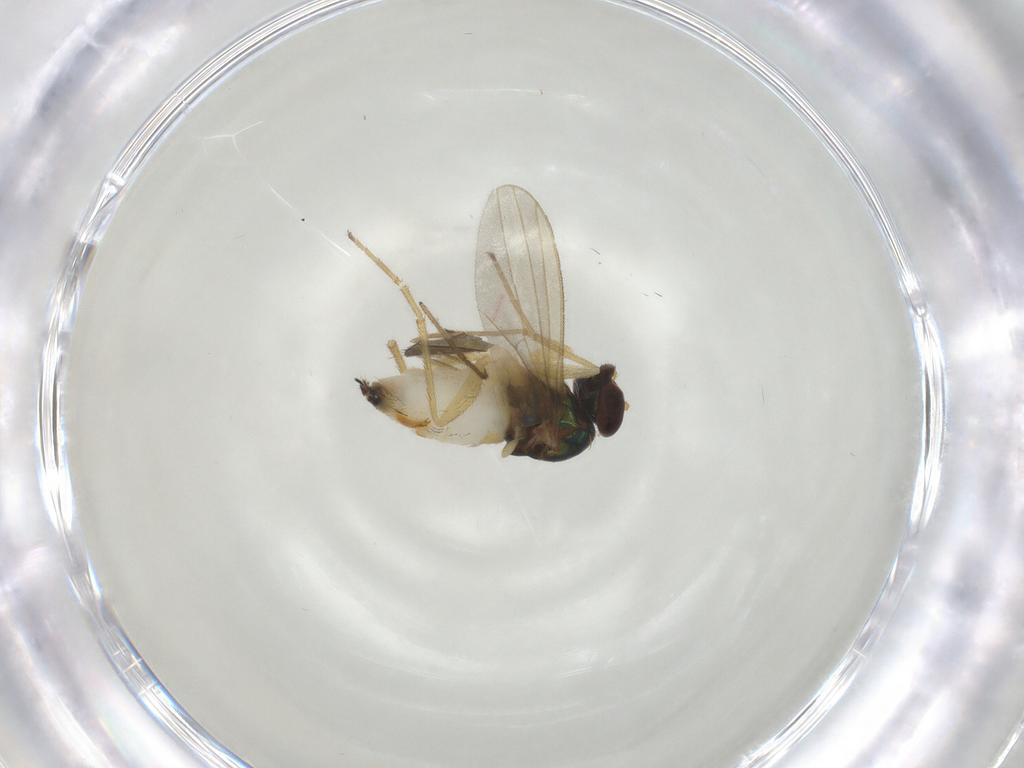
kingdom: Animalia
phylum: Arthropoda
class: Insecta
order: Diptera
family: Dolichopodidae
